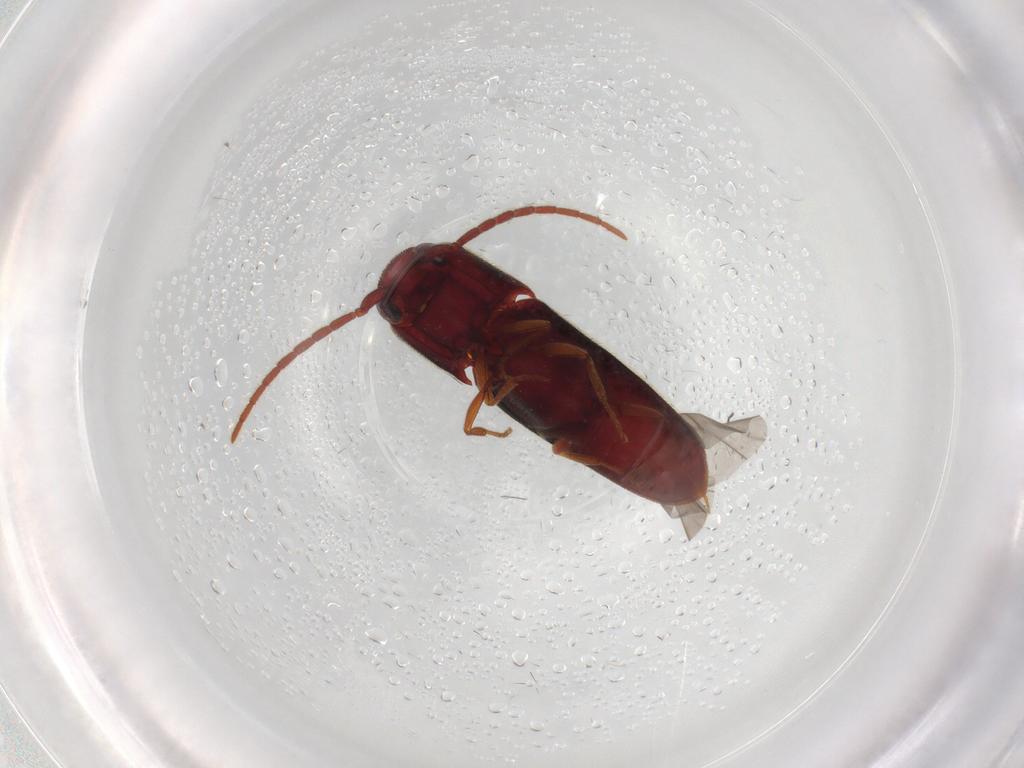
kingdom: Animalia
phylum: Arthropoda
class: Insecta
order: Coleoptera
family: Eucnemidae
